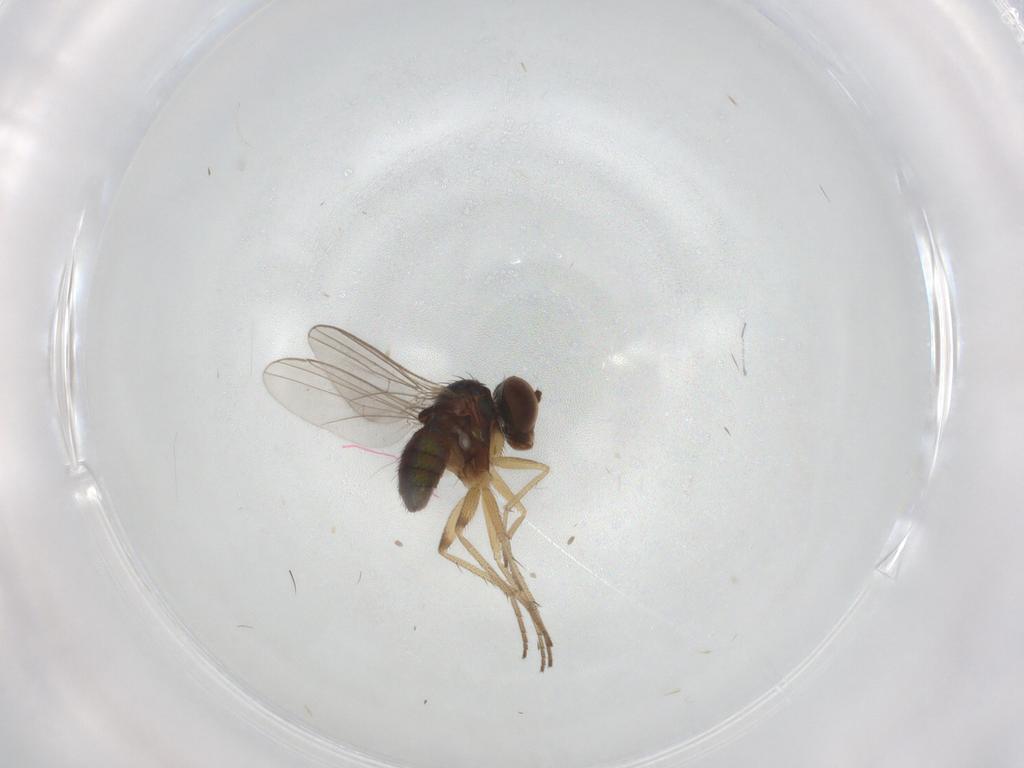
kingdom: Animalia
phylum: Arthropoda
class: Insecta
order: Diptera
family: Dolichopodidae
